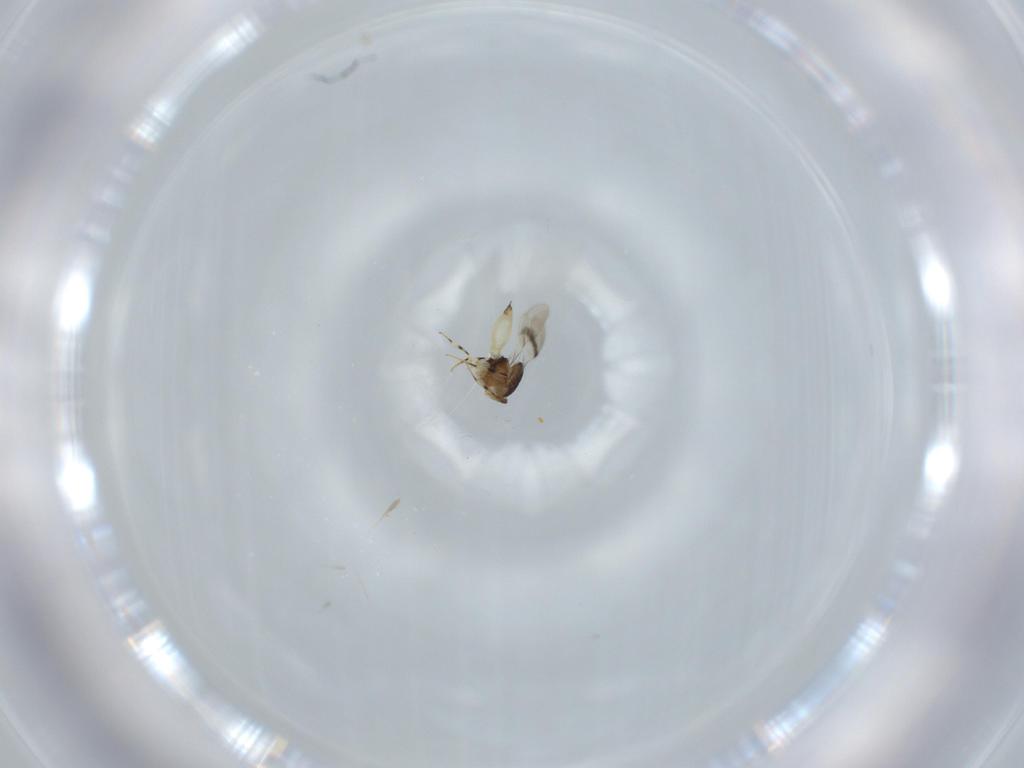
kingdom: Animalia
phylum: Arthropoda
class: Insecta
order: Hymenoptera
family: Scelionidae
